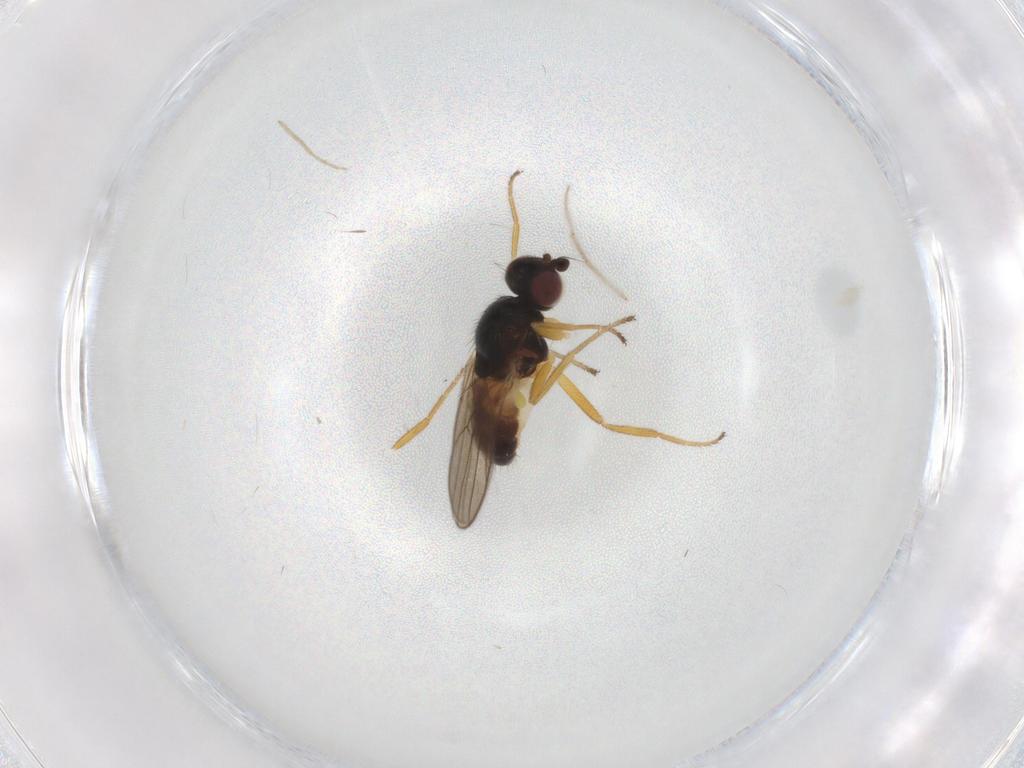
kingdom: Animalia
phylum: Arthropoda
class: Insecta
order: Diptera
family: Chloropidae
